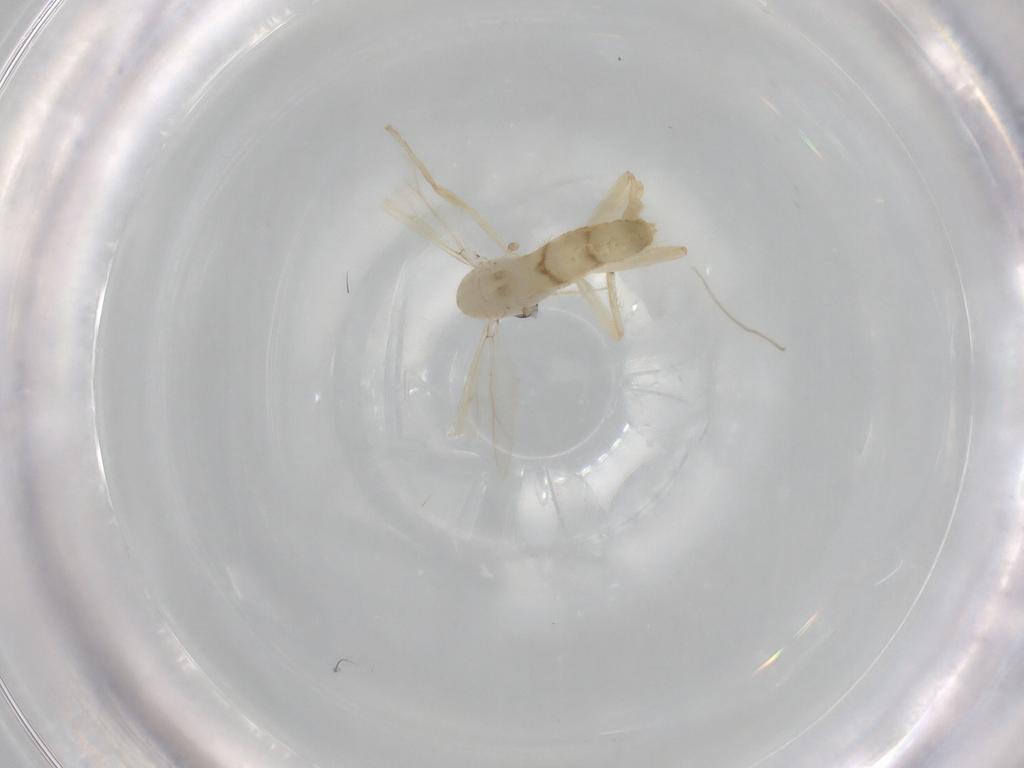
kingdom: Animalia
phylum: Arthropoda
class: Insecta
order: Diptera
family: Chironomidae
